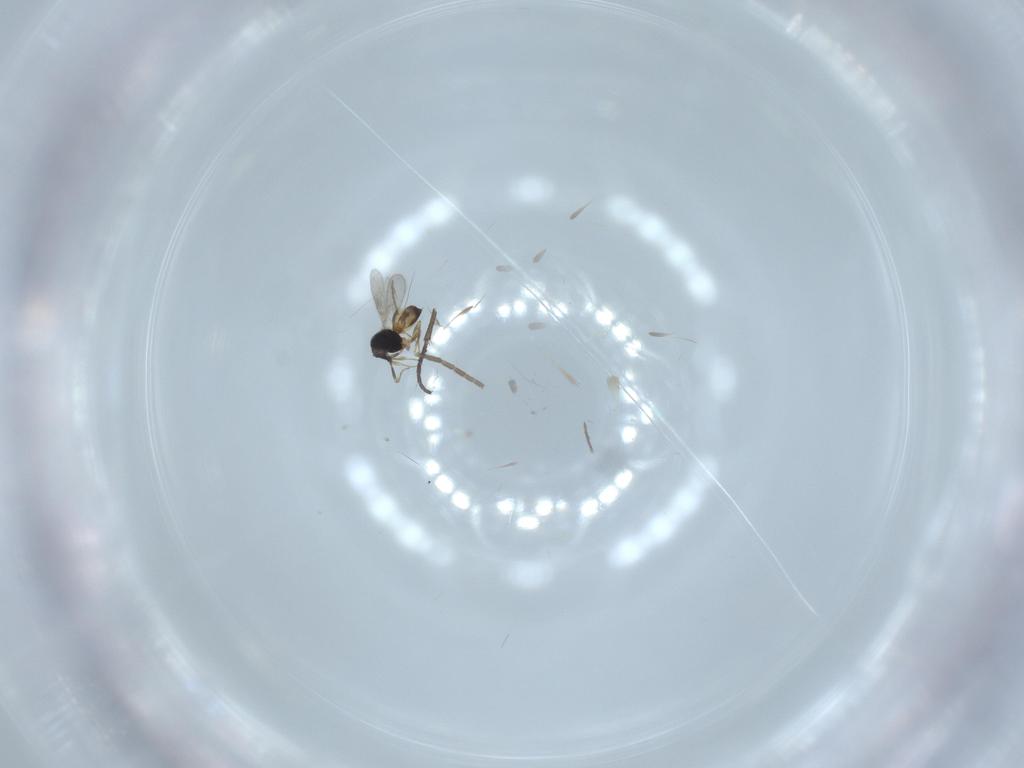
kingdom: Animalia
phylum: Arthropoda
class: Insecta
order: Hymenoptera
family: Scelionidae
